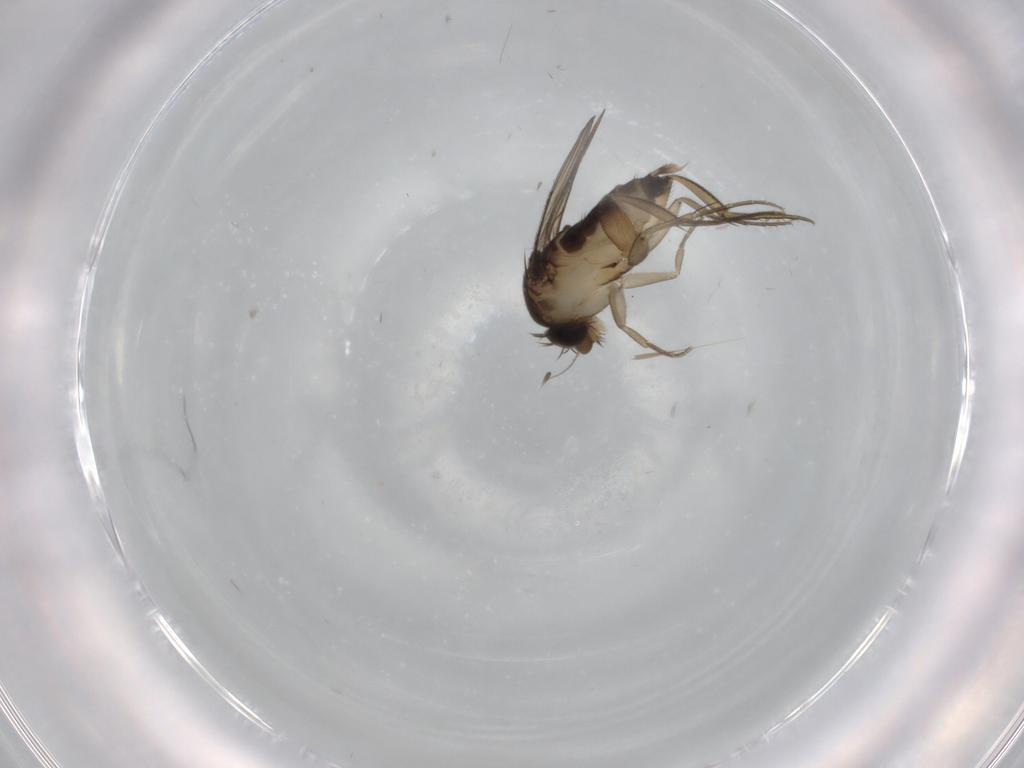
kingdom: Animalia
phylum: Arthropoda
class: Insecta
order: Diptera
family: Phoridae
